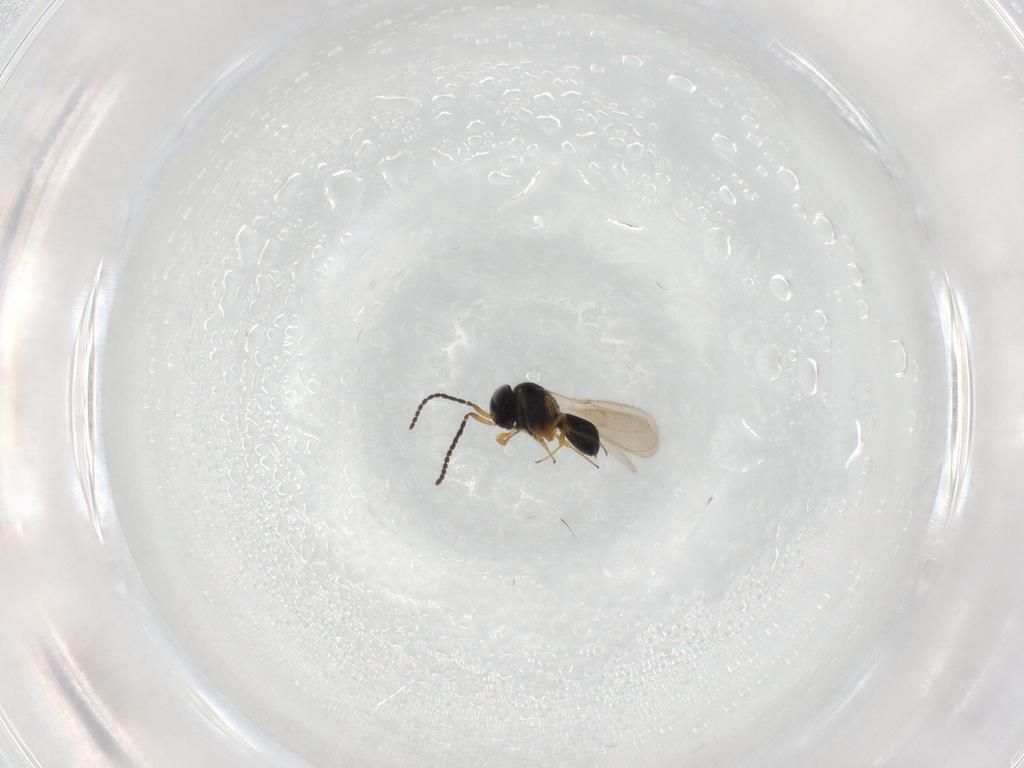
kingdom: Animalia
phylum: Arthropoda
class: Insecta
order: Hymenoptera
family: Scelionidae
